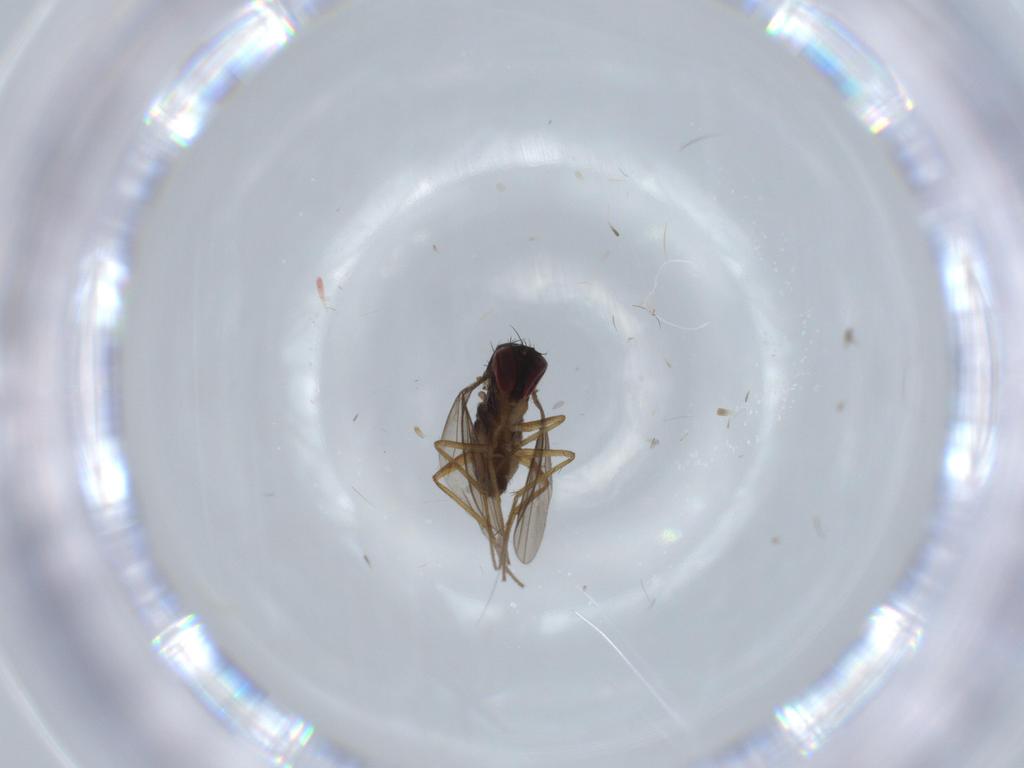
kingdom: Animalia
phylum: Arthropoda
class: Insecta
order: Diptera
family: Dolichopodidae
